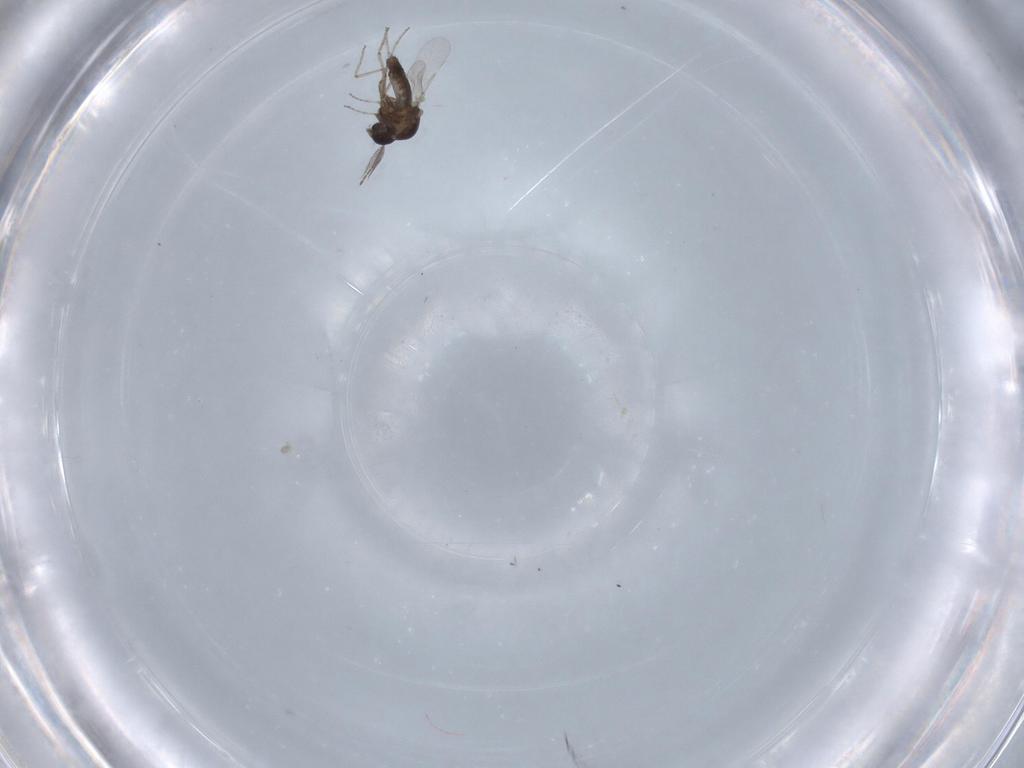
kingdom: Animalia
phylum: Arthropoda
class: Insecta
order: Diptera
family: Ceratopogonidae
